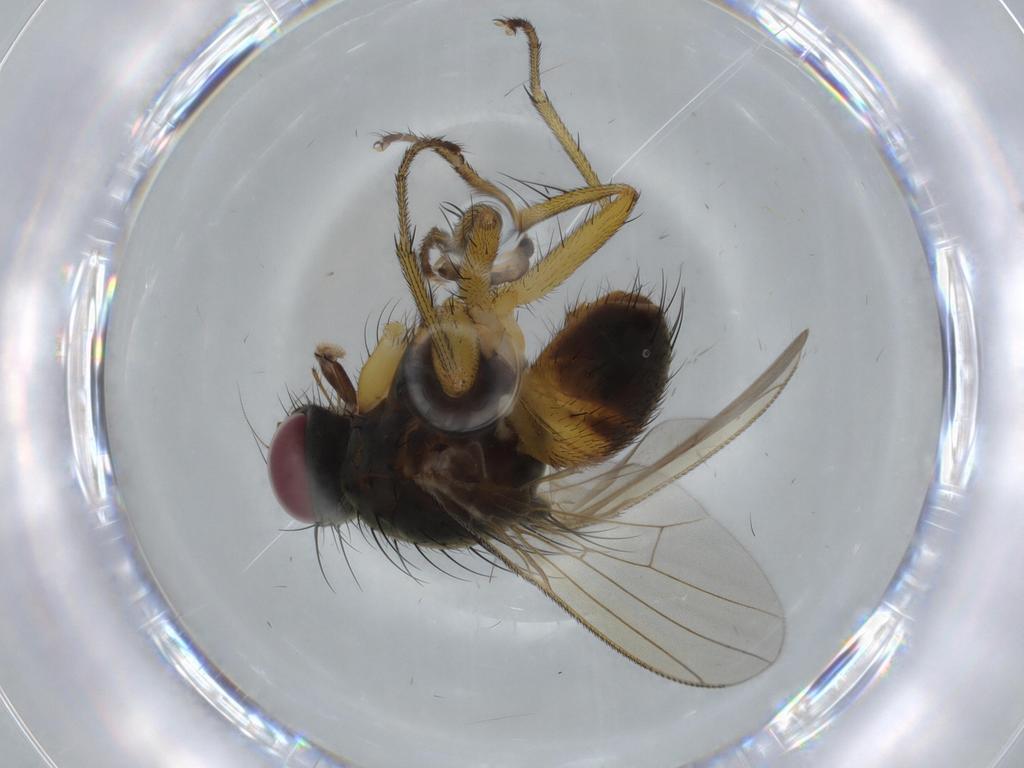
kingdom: Animalia
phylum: Arthropoda
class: Insecta
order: Diptera
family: Muscidae
